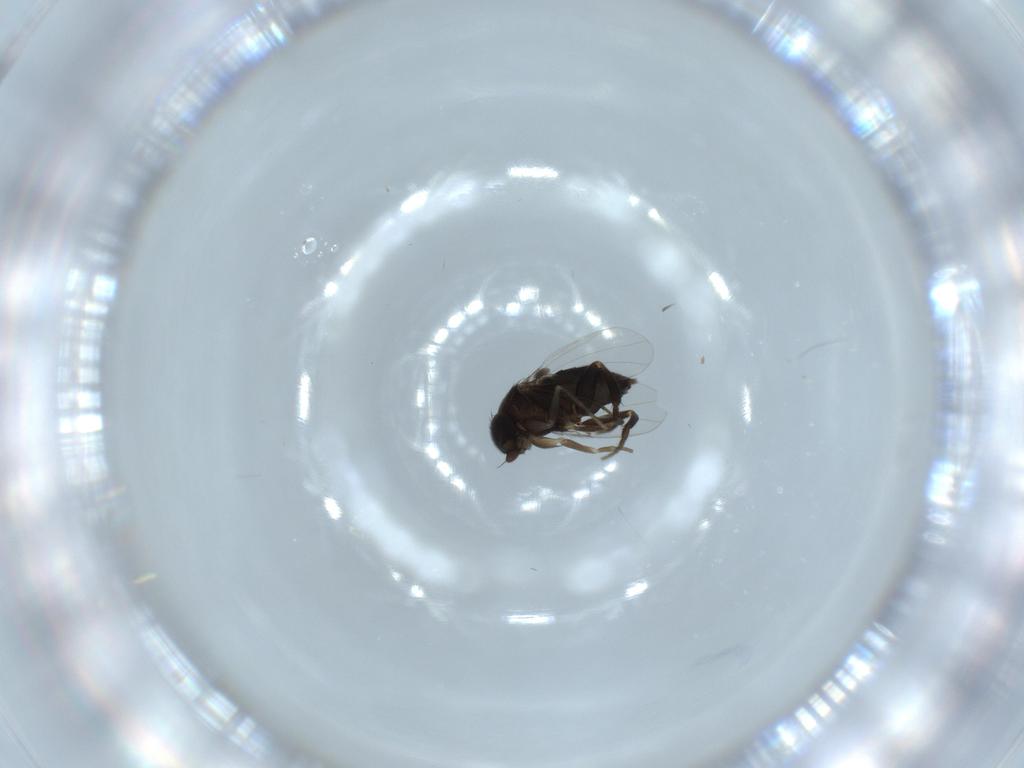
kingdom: Animalia
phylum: Arthropoda
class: Insecta
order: Diptera
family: Phoridae
